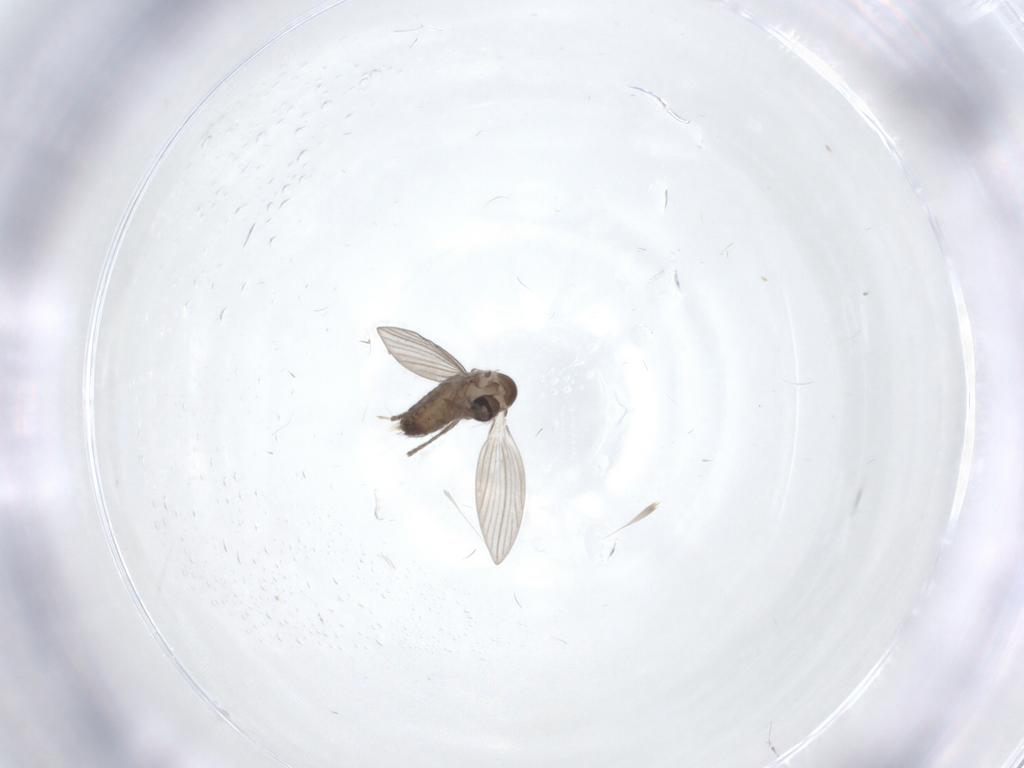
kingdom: Animalia
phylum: Arthropoda
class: Insecta
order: Diptera
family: Psychodidae
